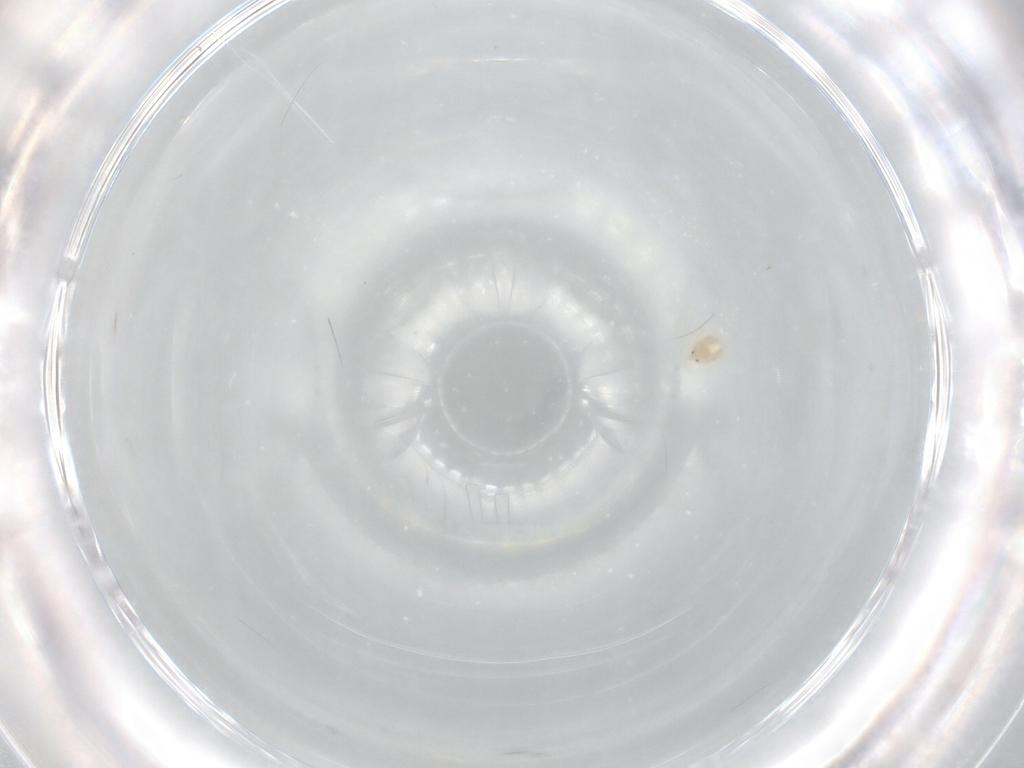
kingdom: Animalia
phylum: Arthropoda
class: Arachnida
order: Trombidiformes
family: Eupodidae
